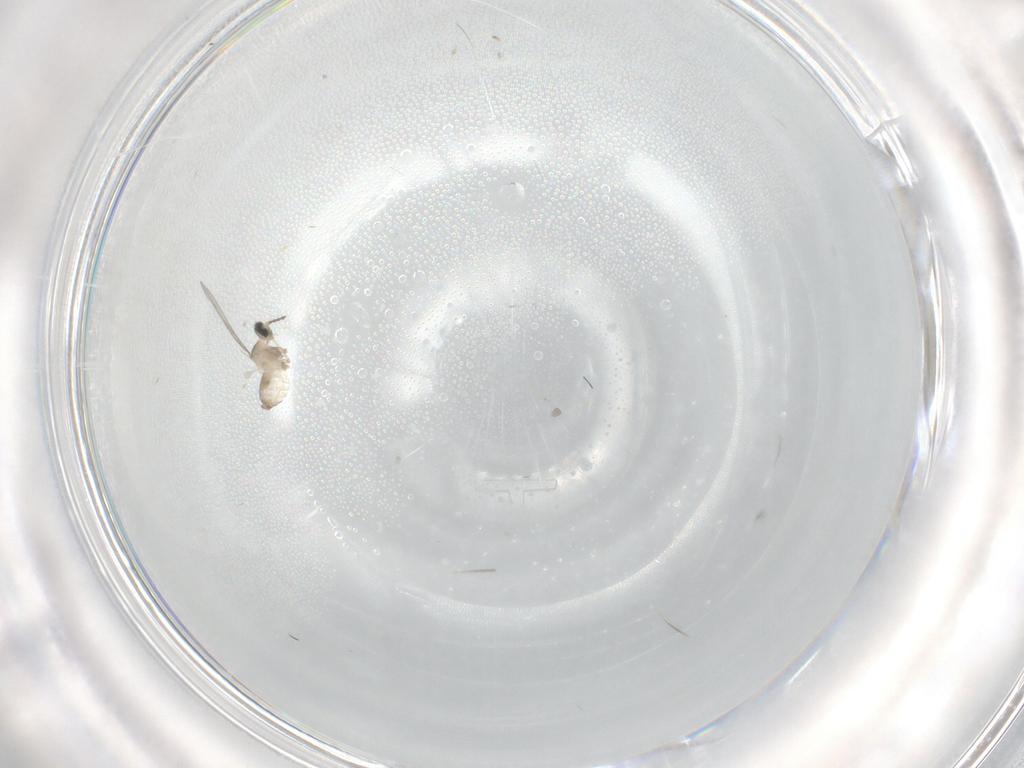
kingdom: Animalia
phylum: Arthropoda
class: Insecta
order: Diptera
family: Cecidomyiidae
